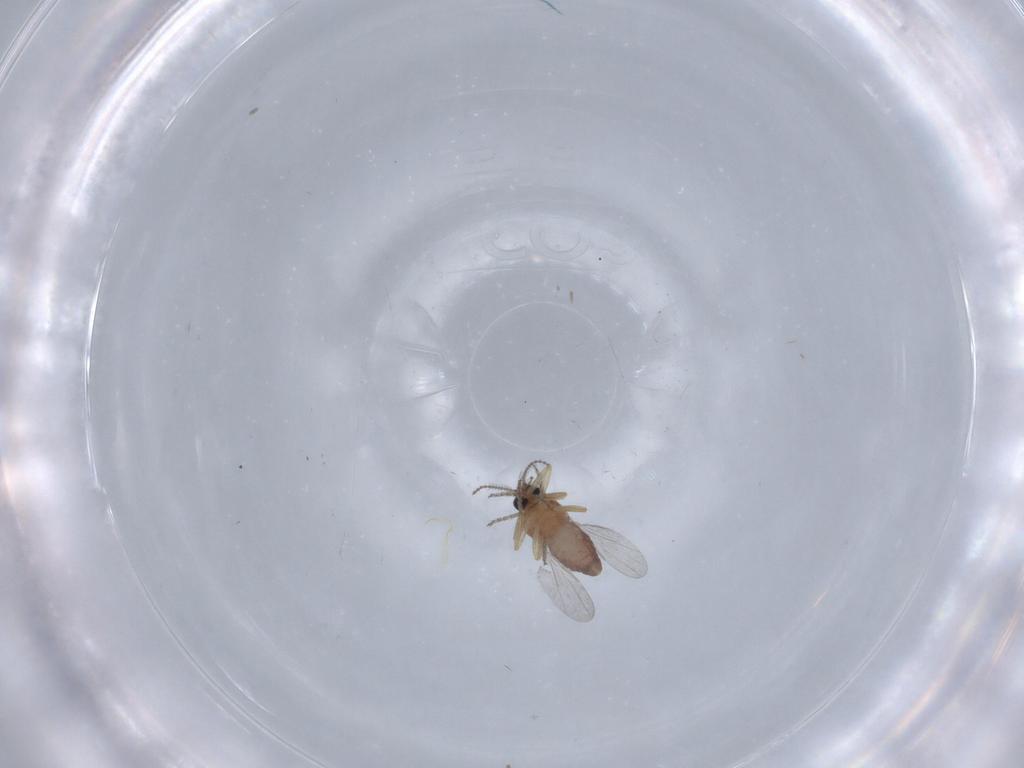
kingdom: Animalia
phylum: Arthropoda
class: Insecta
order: Diptera
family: Ceratopogonidae
